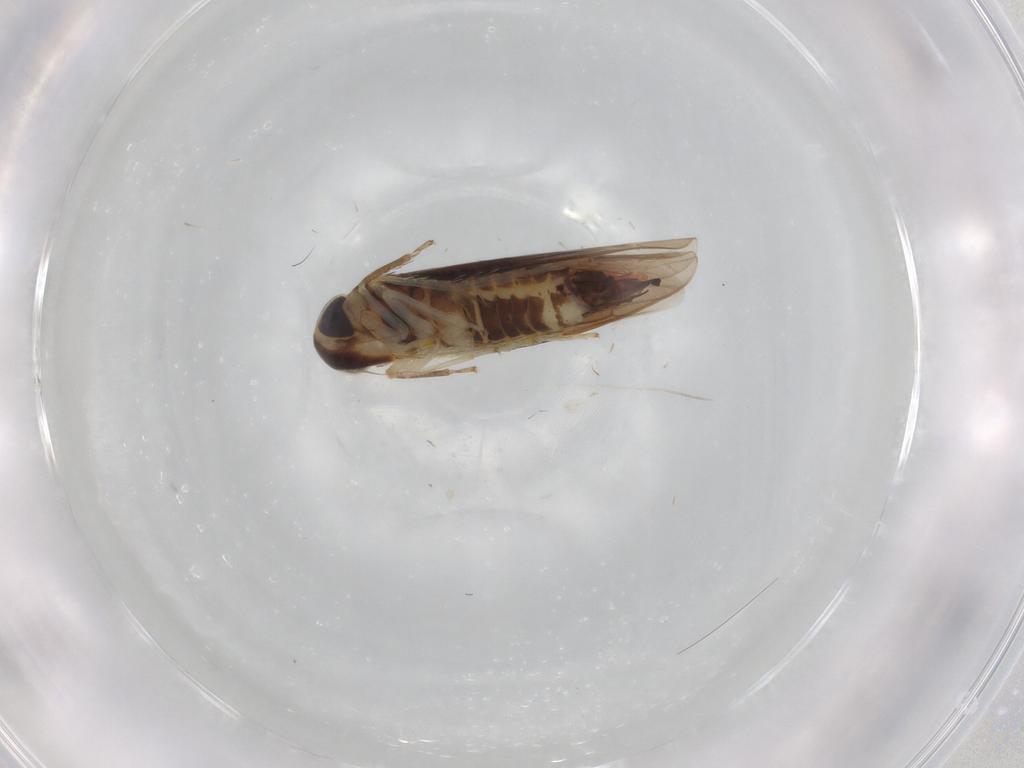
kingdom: Animalia
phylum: Arthropoda
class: Insecta
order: Hemiptera
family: Cicadellidae
